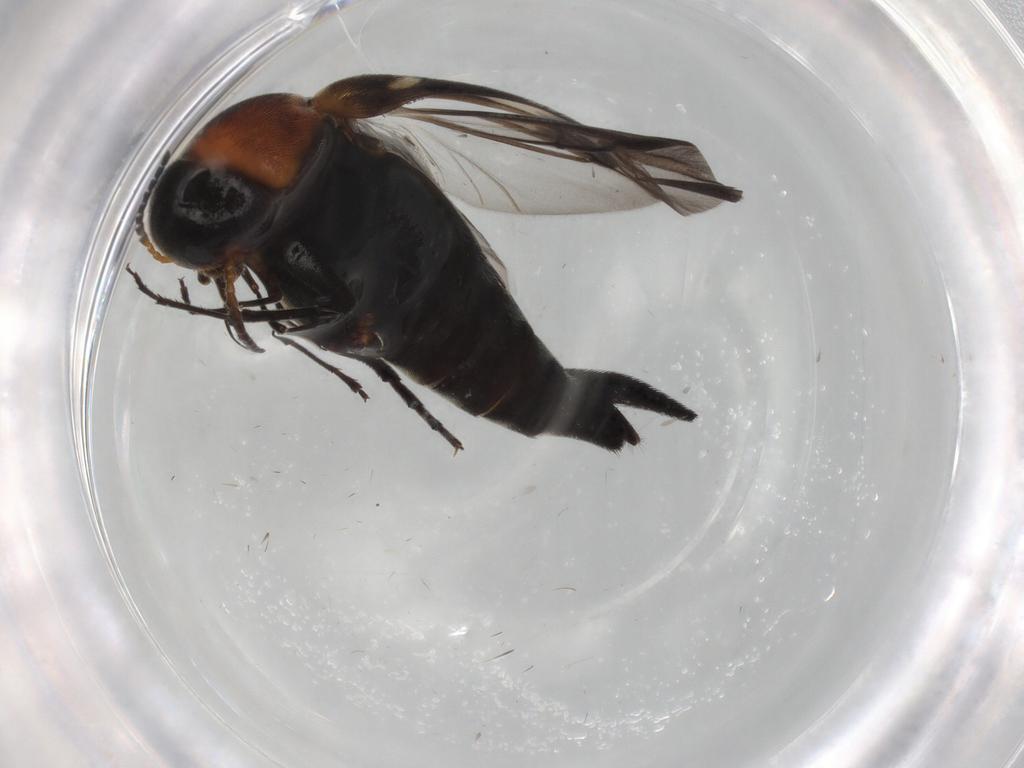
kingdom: Animalia
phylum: Arthropoda
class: Insecta
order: Coleoptera
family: Mordellidae
